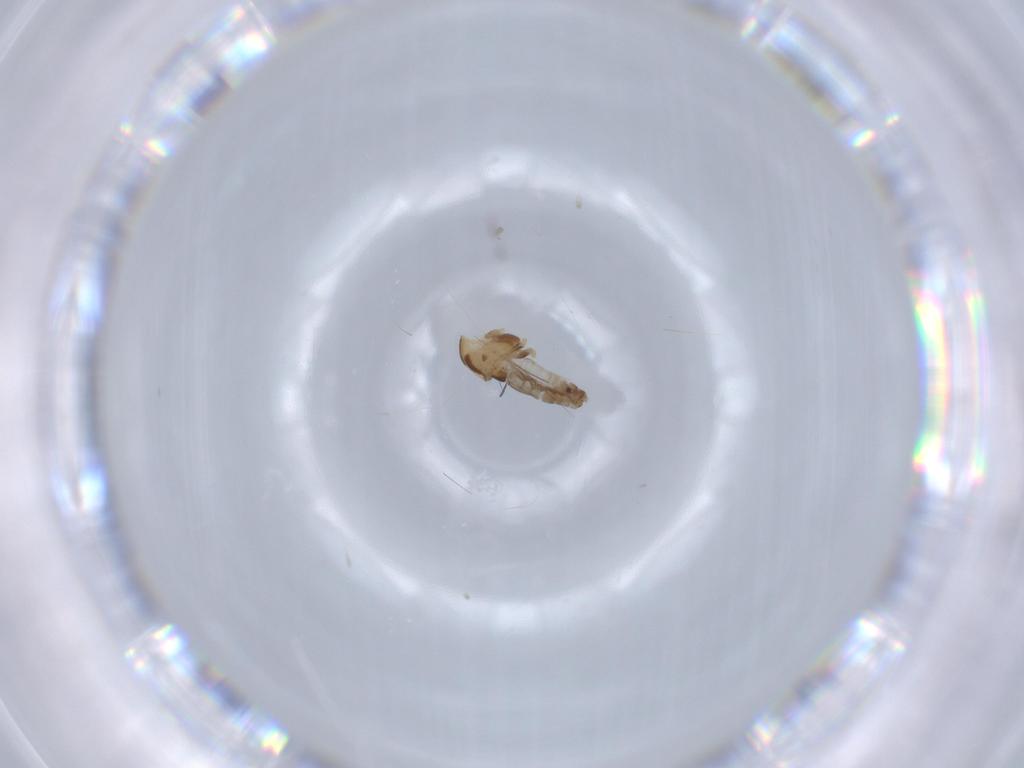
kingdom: Animalia
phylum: Arthropoda
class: Insecta
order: Diptera
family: Chironomidae
